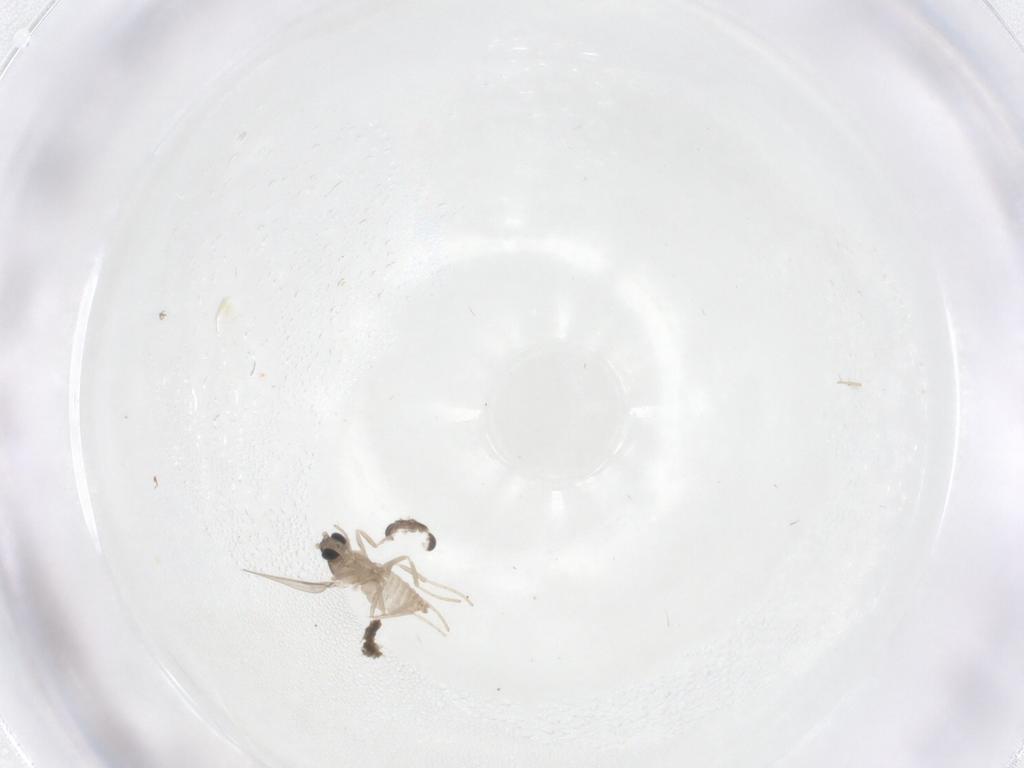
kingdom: Animalia
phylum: Arthropoda
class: Insecta
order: Diptera
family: Cecidomyiidae
